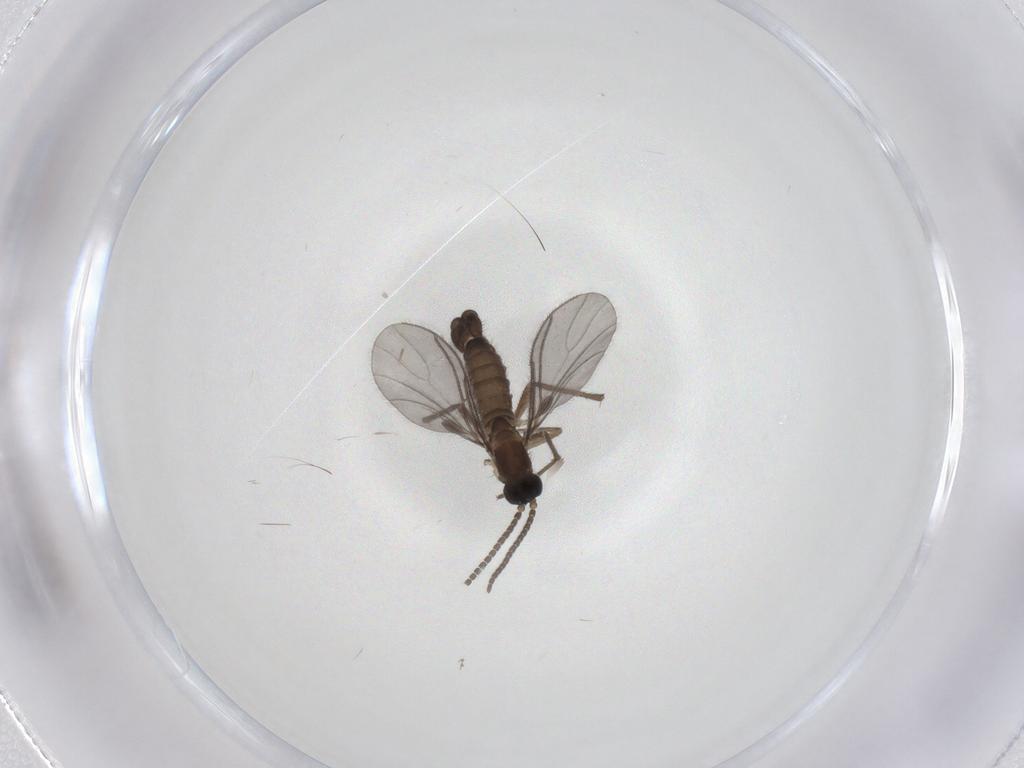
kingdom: Animalia
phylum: Arthropoda
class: Insecta
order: Diptera
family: Sciaridae
